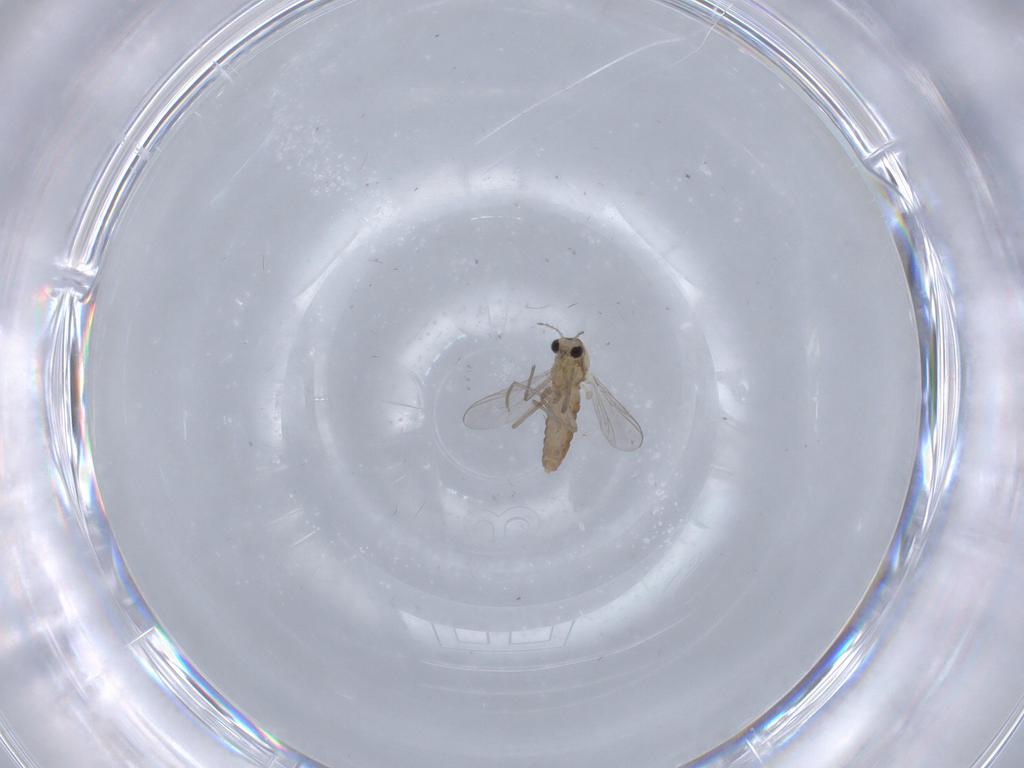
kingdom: Animalia
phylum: Arthropoda
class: Insecta
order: Diptera
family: Chironomidae
